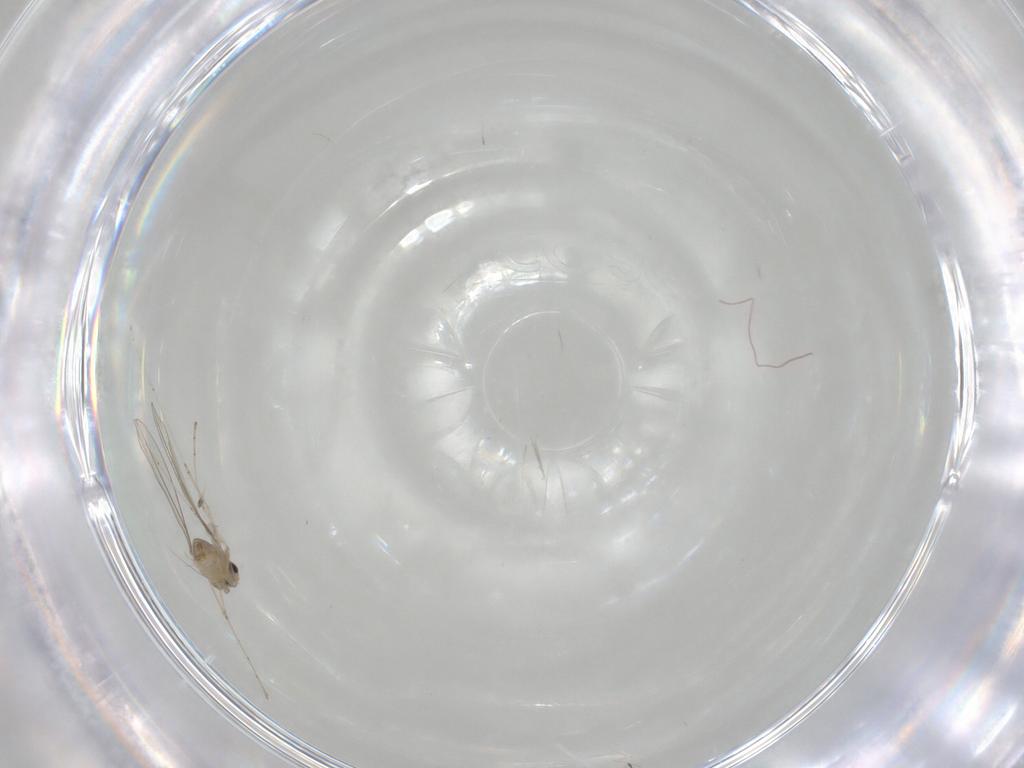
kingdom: Animalia
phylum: Arthropoda
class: Insecta
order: Diptera
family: Cecidomyiidae
